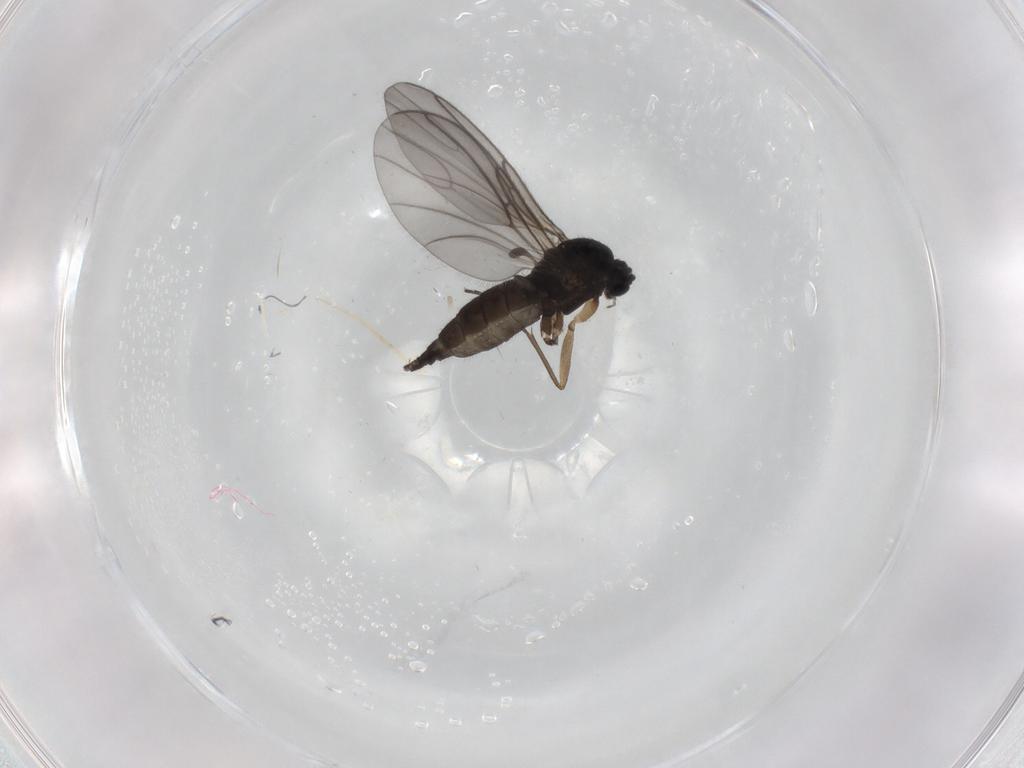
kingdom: Animalia
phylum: Arthropoda
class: Insecta
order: Diptera
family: Sciaridae
